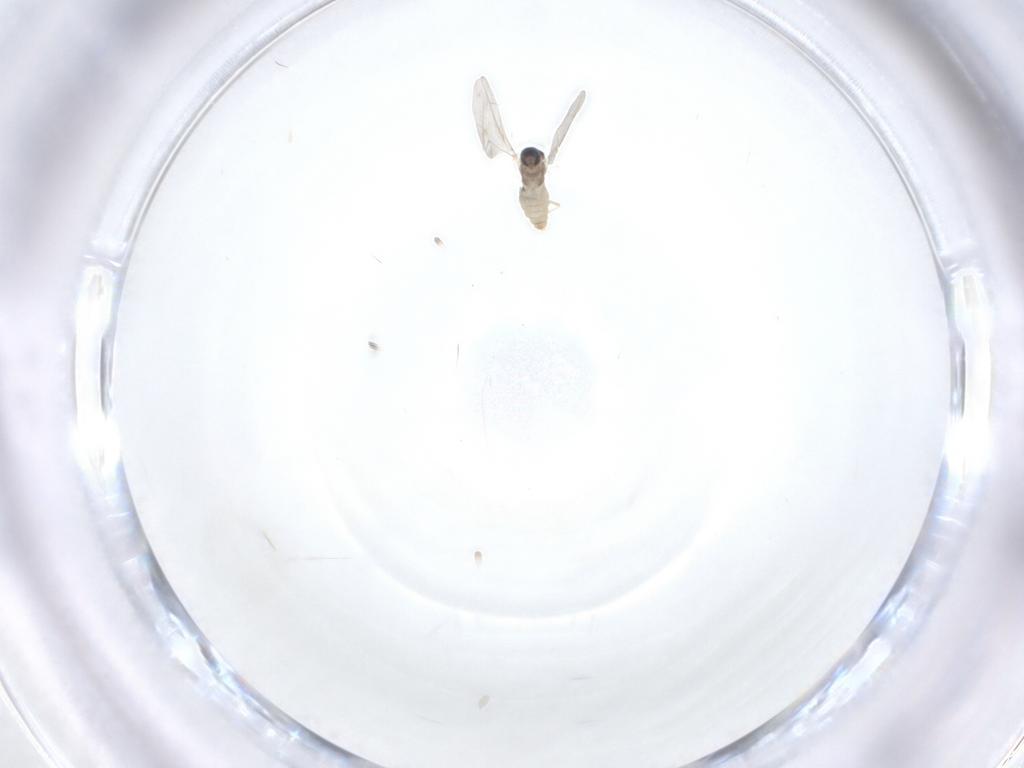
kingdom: Animalia
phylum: Arthropoda
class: Insecta
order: Diptera
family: Cecidomyiidae
